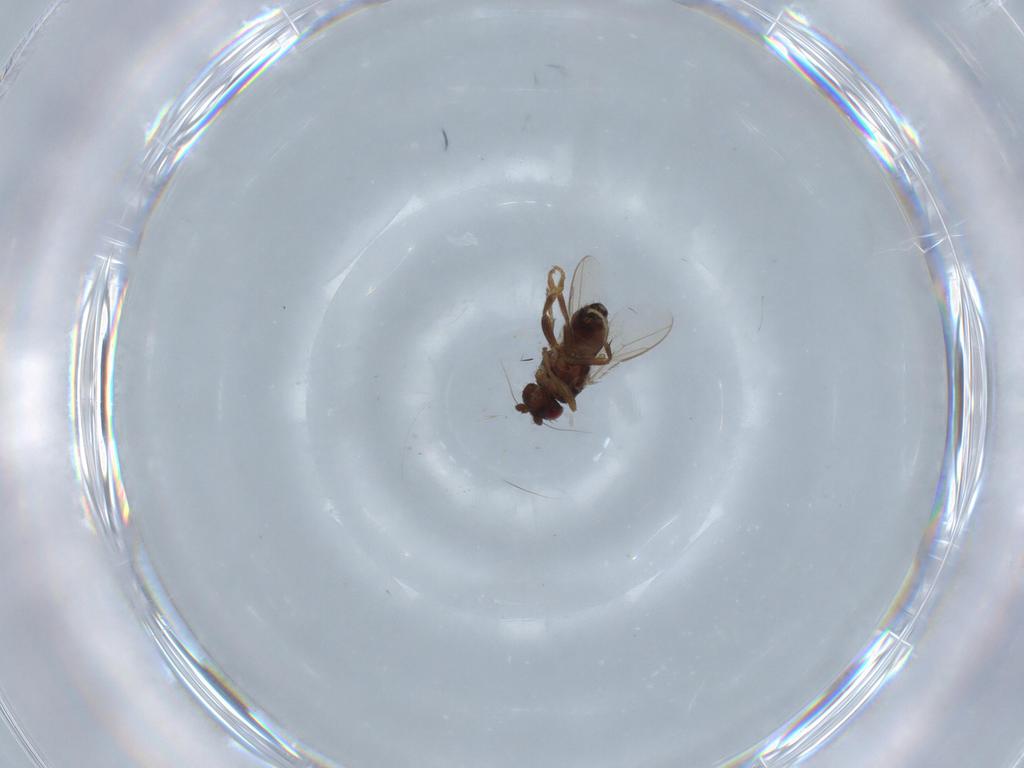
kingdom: Animalia
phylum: Arthropoda
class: Insecta
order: Diptera
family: Sphaeroceridae
